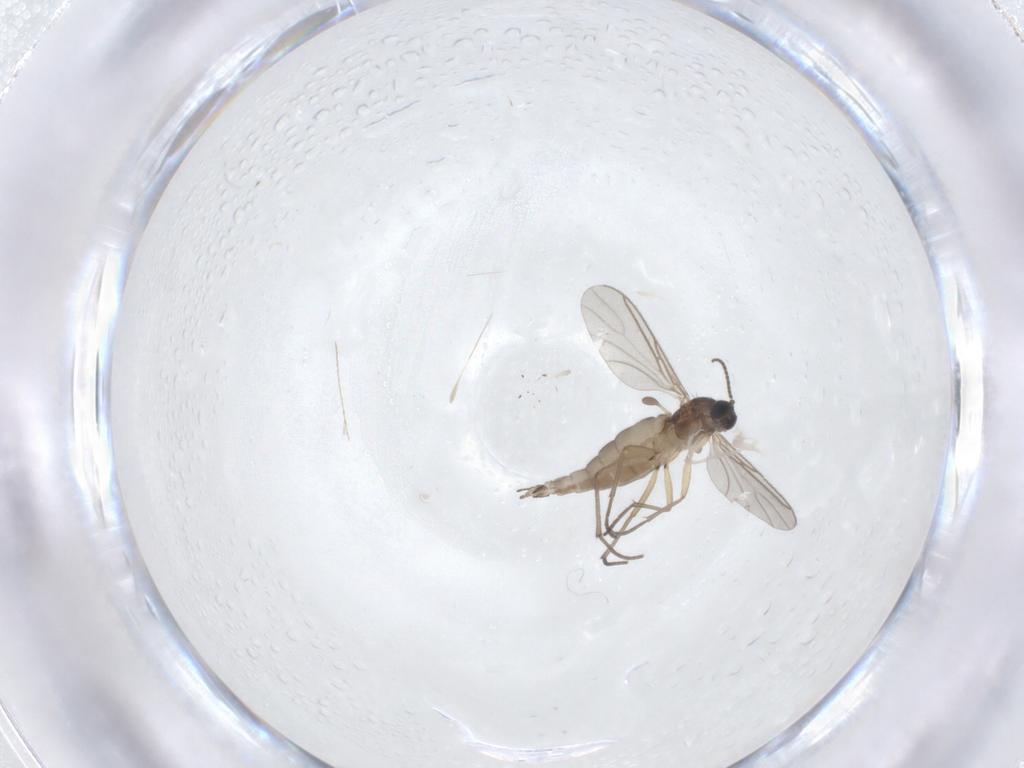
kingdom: Animalia
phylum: Arthropoda
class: Insecta
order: Diptera
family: Sciaridae
